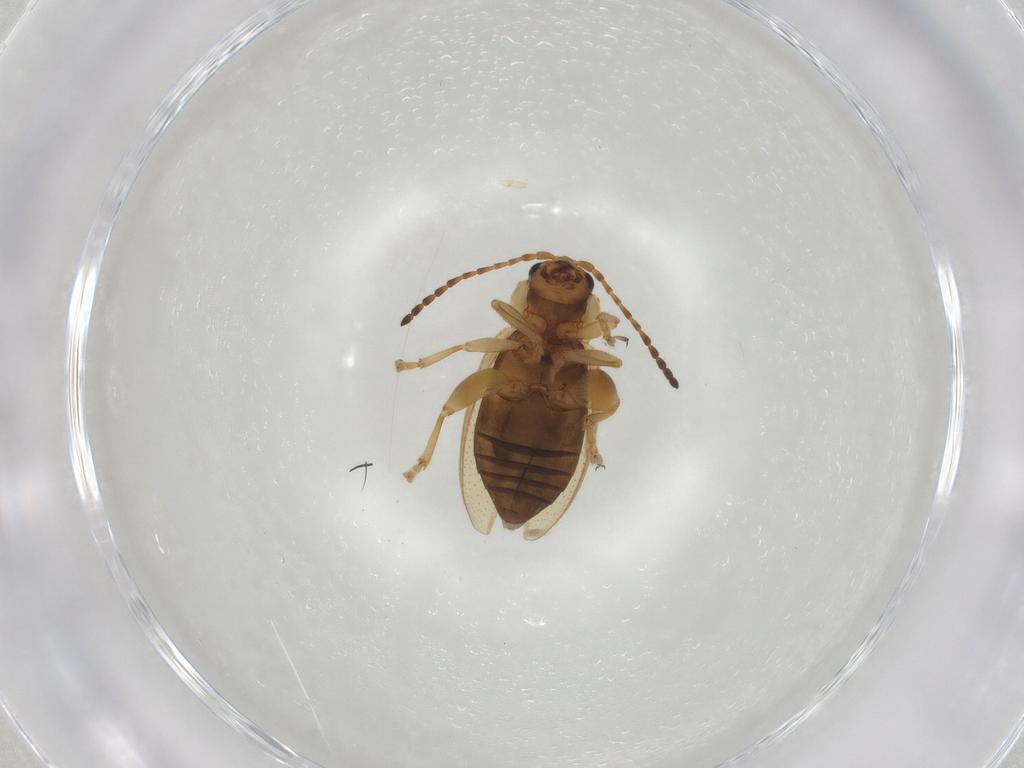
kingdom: Animalia
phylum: Arthropoda
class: Insecta
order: Coleoptera
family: Chrysomelidae
